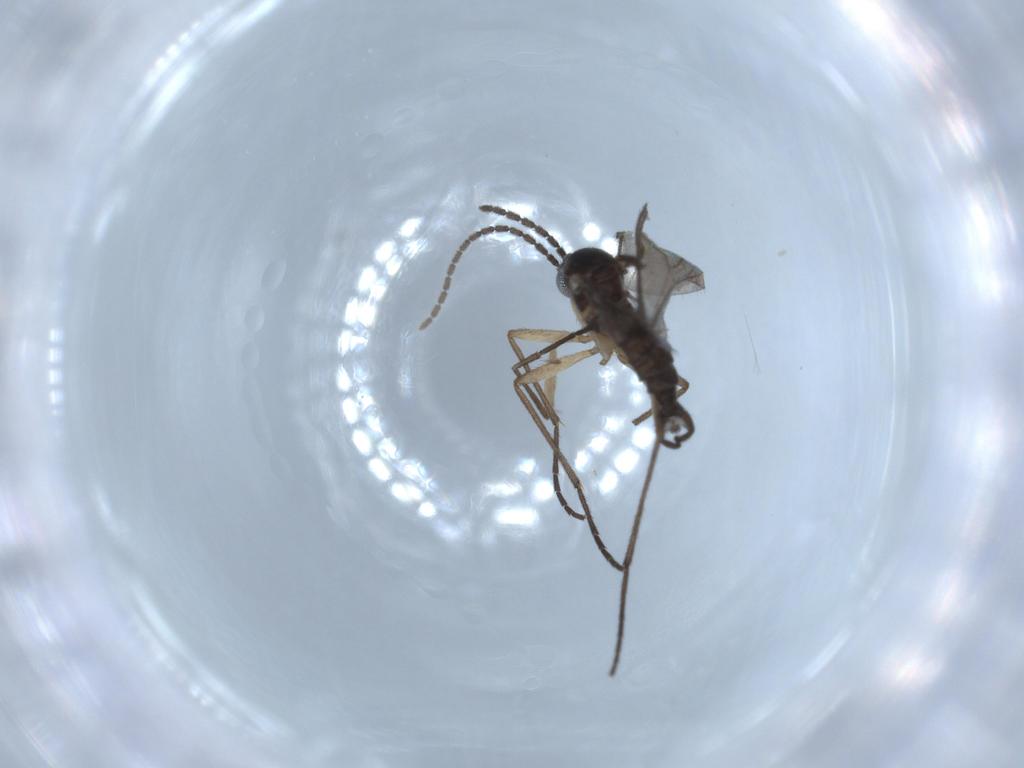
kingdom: Animalia
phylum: Arthropoda
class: Insecta
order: Diptera
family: Sciaridae
